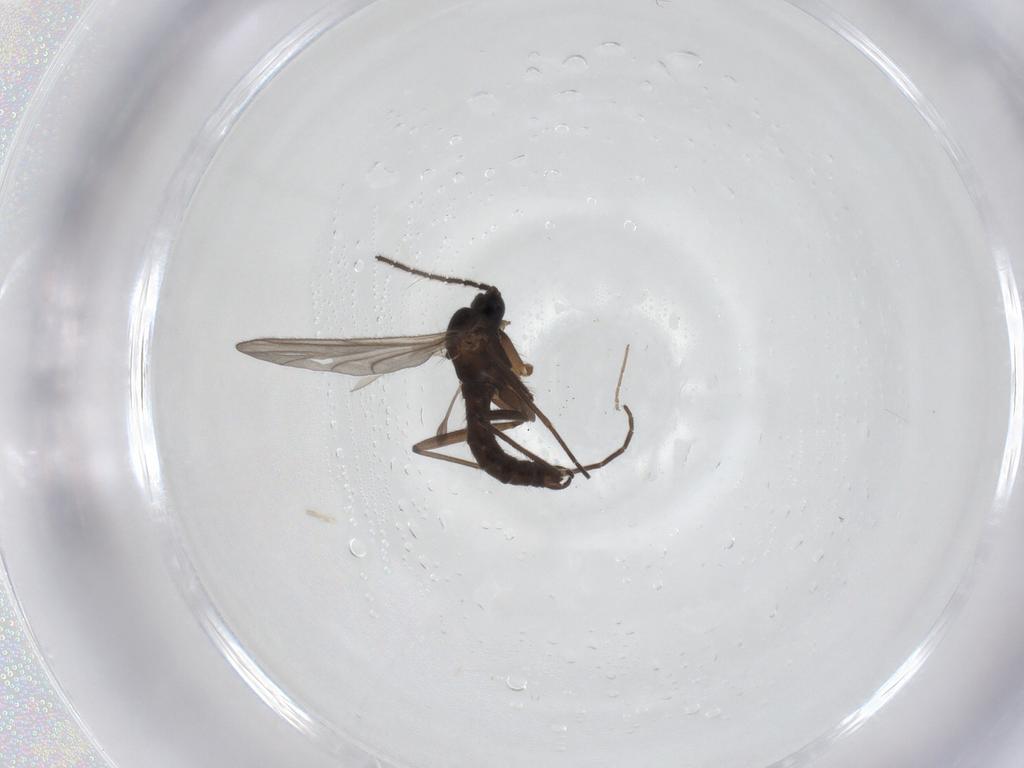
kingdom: Animalia
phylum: Arthropoda
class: Insecta
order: Diptera
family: Sciaridae
